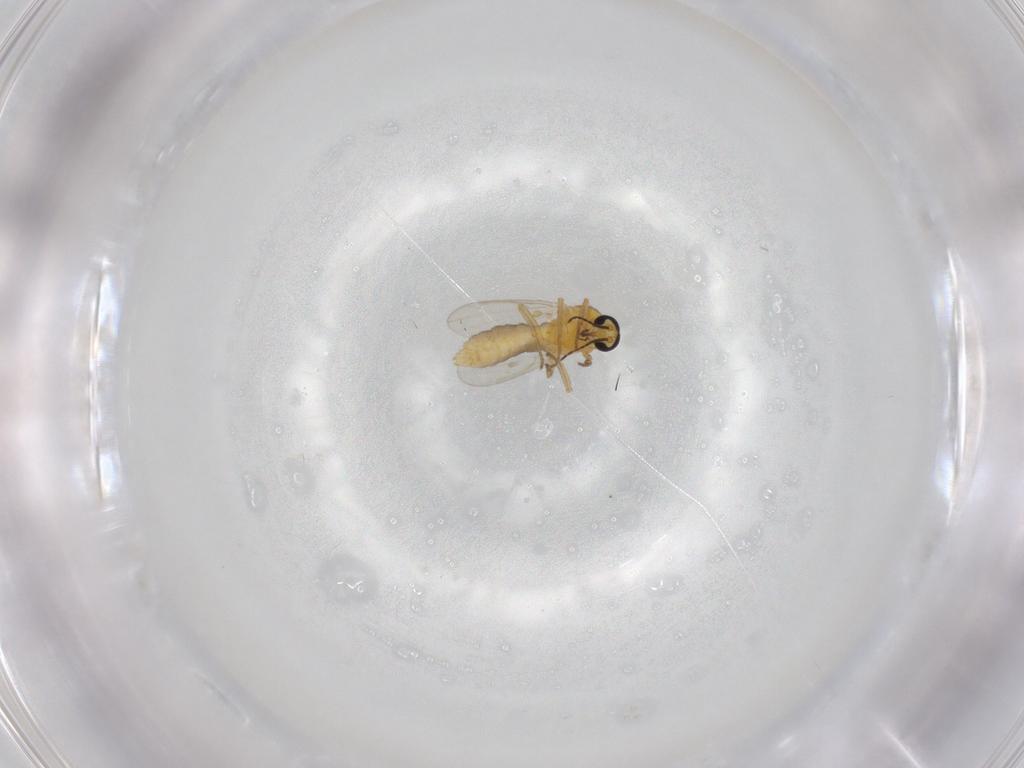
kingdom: Animalia
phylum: Arthropoda
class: Insecta
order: Diptera
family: Ceratopogonidae
